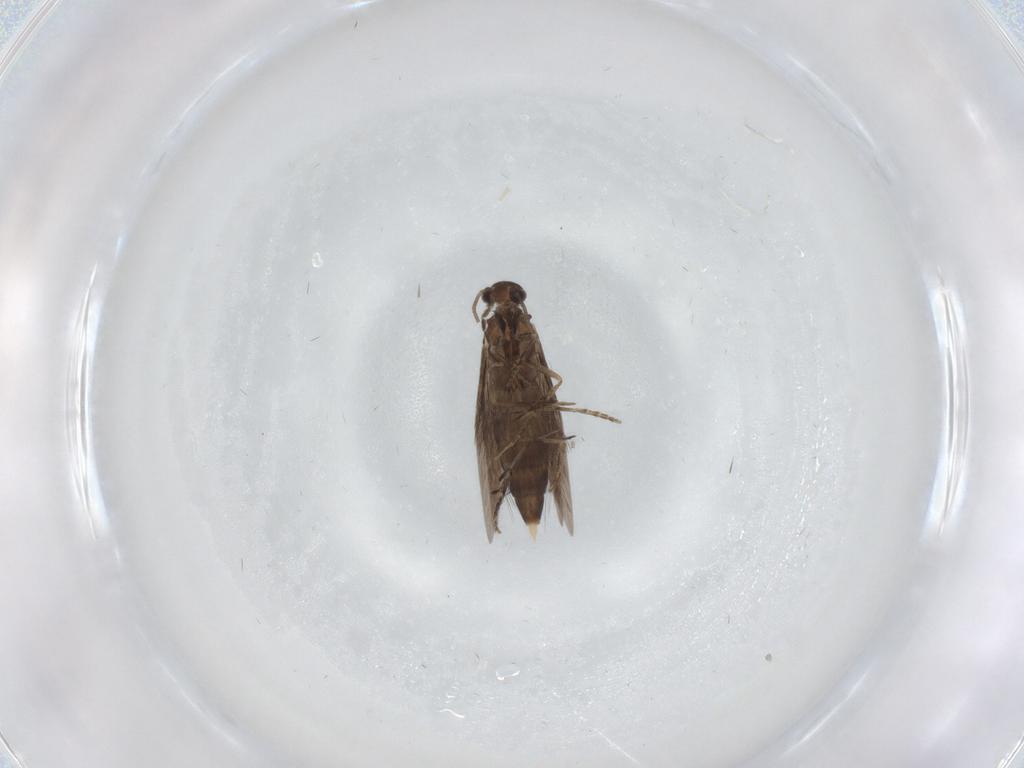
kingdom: Animalia
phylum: Arthropoda
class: Insecta
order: Trichoptera
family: Hydroptilidae
